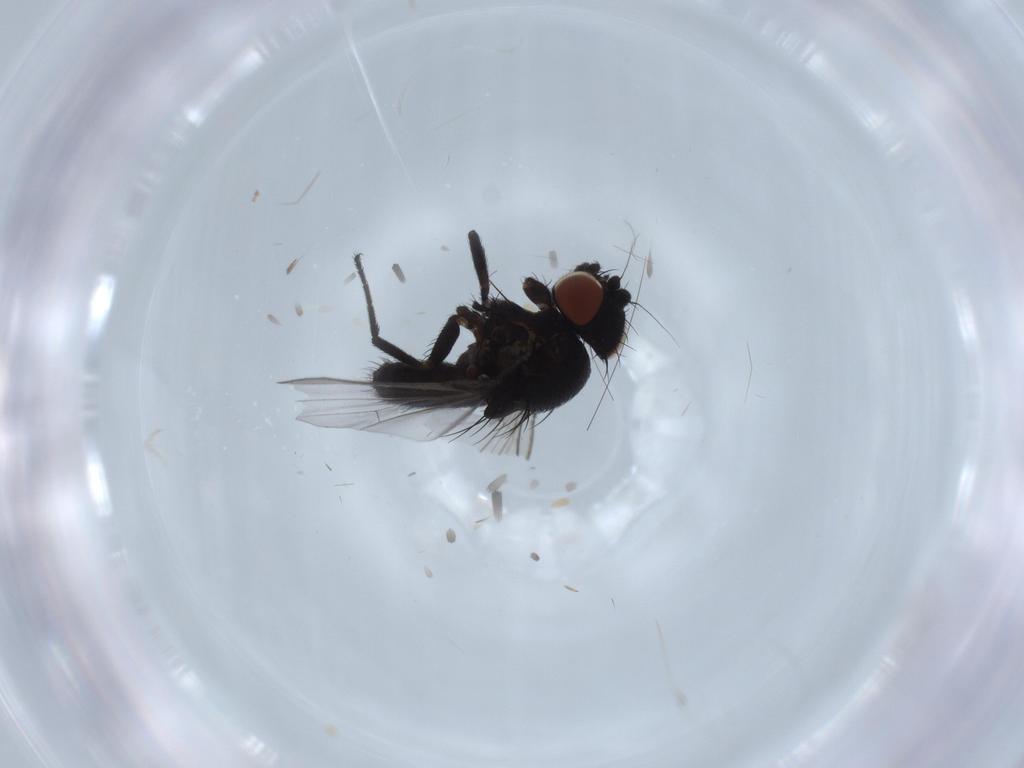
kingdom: Animalia
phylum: Arthropoda
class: Insecta
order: Diptera
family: Milichiidae
